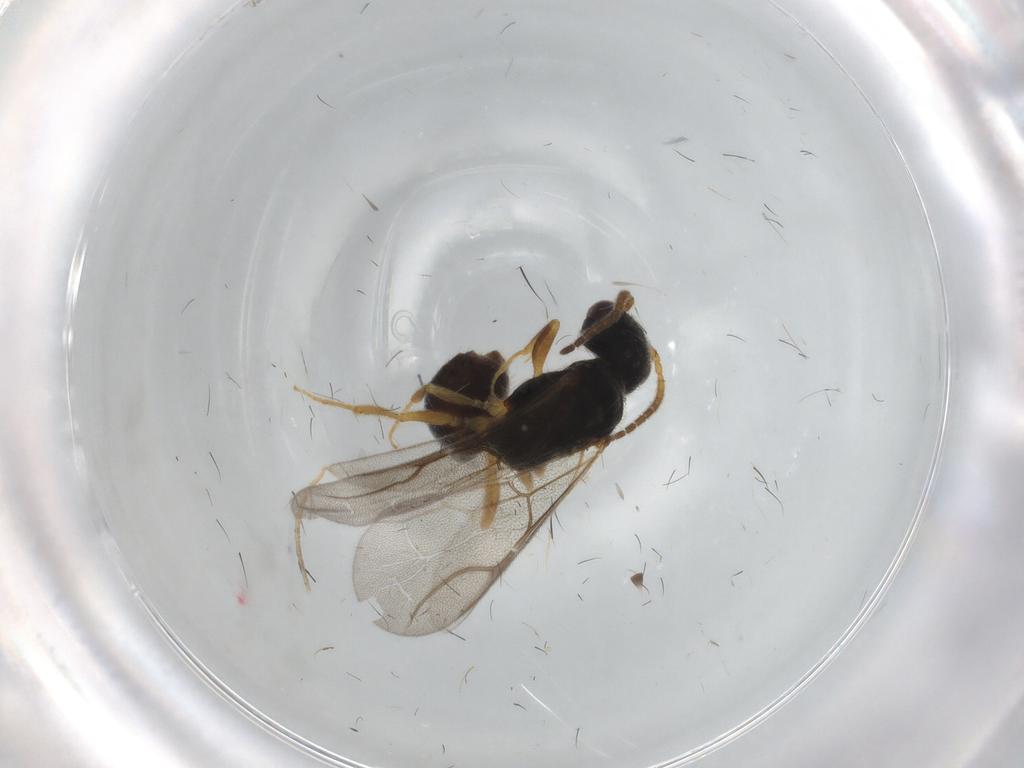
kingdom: Animalia
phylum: Arthropoda
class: Insecta
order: Hymenoptera
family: Bethylidae
